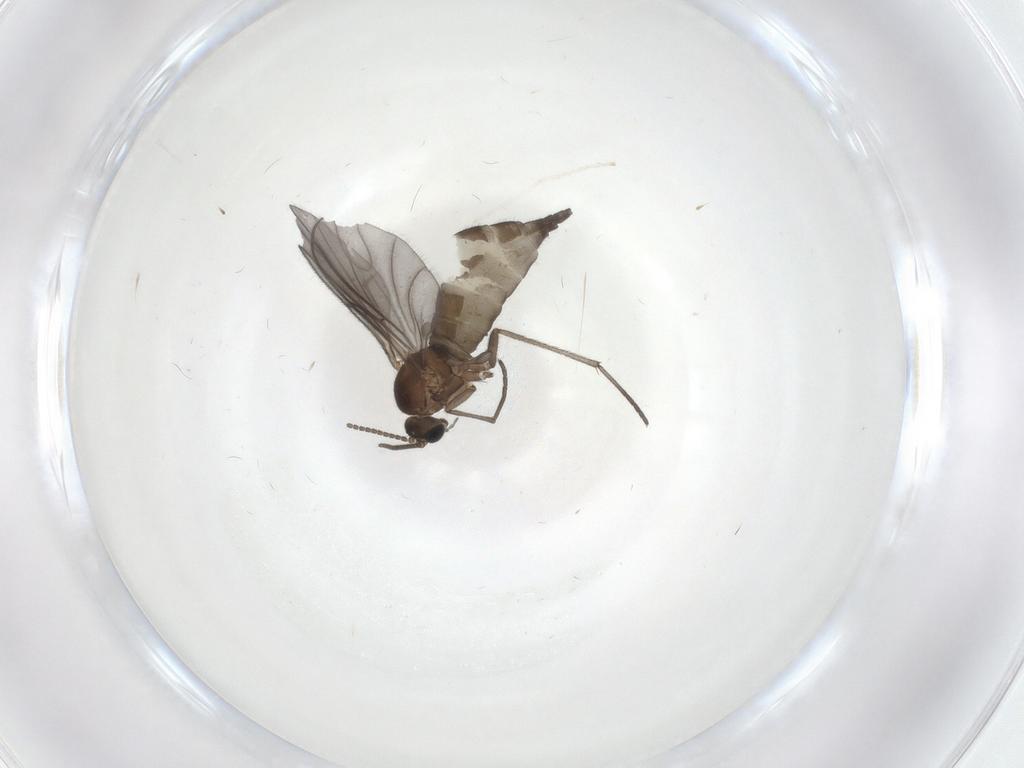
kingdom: Animalia
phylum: Arthropoda
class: Insecta
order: Diptera
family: Sciaridae
